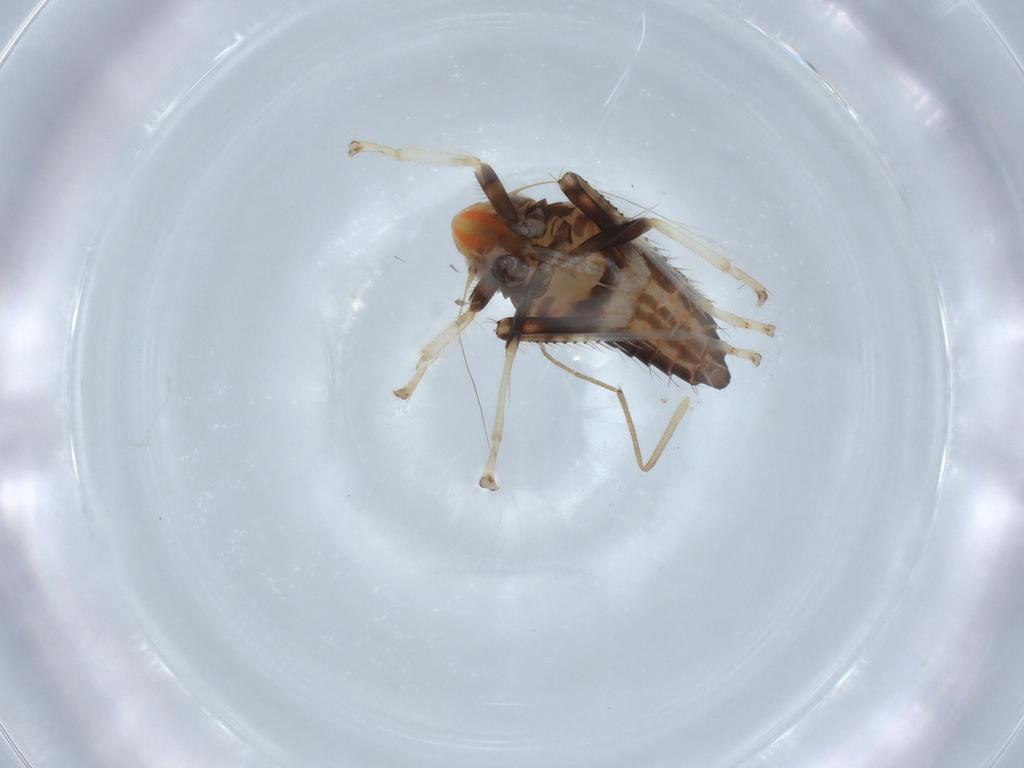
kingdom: Animalia
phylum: Arthropoda
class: Insecta
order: Hemiptera
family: Cicadellidae
